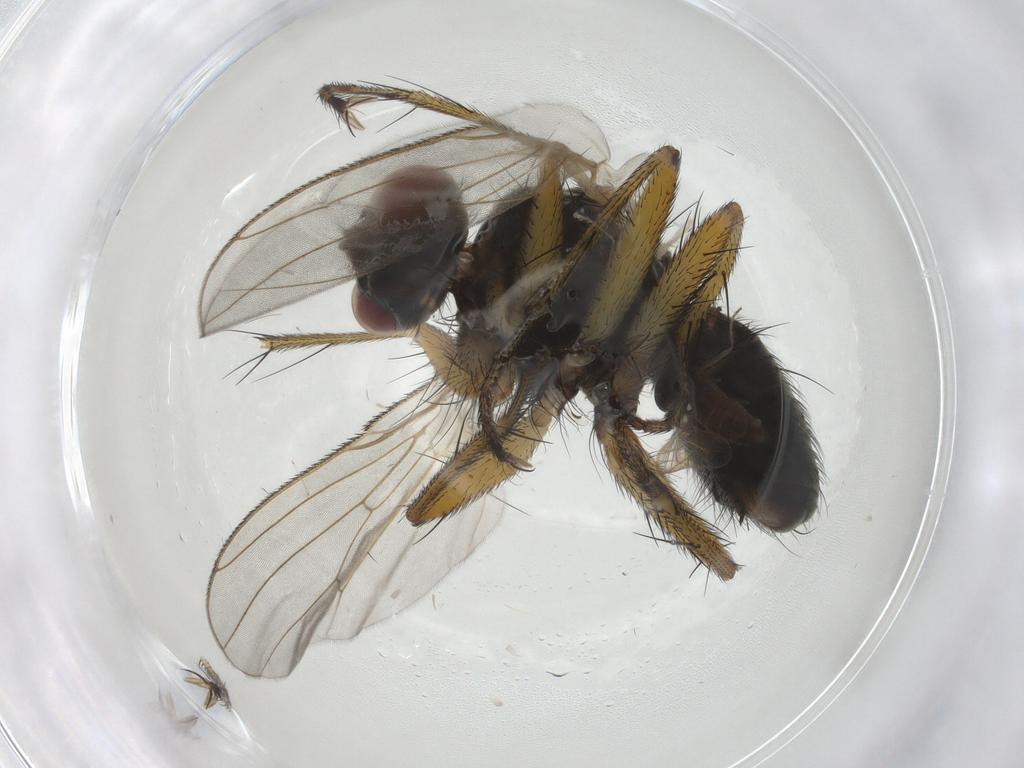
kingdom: Animalia
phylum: Arthropoda
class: Insecta
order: Diptera
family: Muscidae
